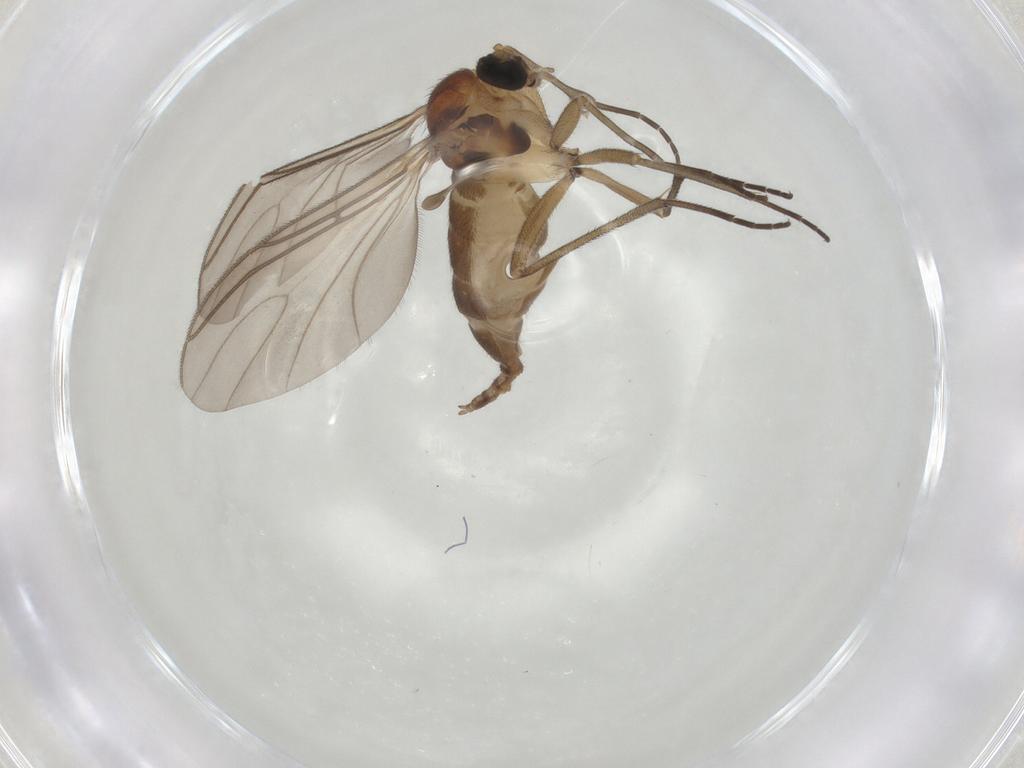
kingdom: Animalia
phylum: Arthropoda
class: Insecta
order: Diptera
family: Sciaridae
